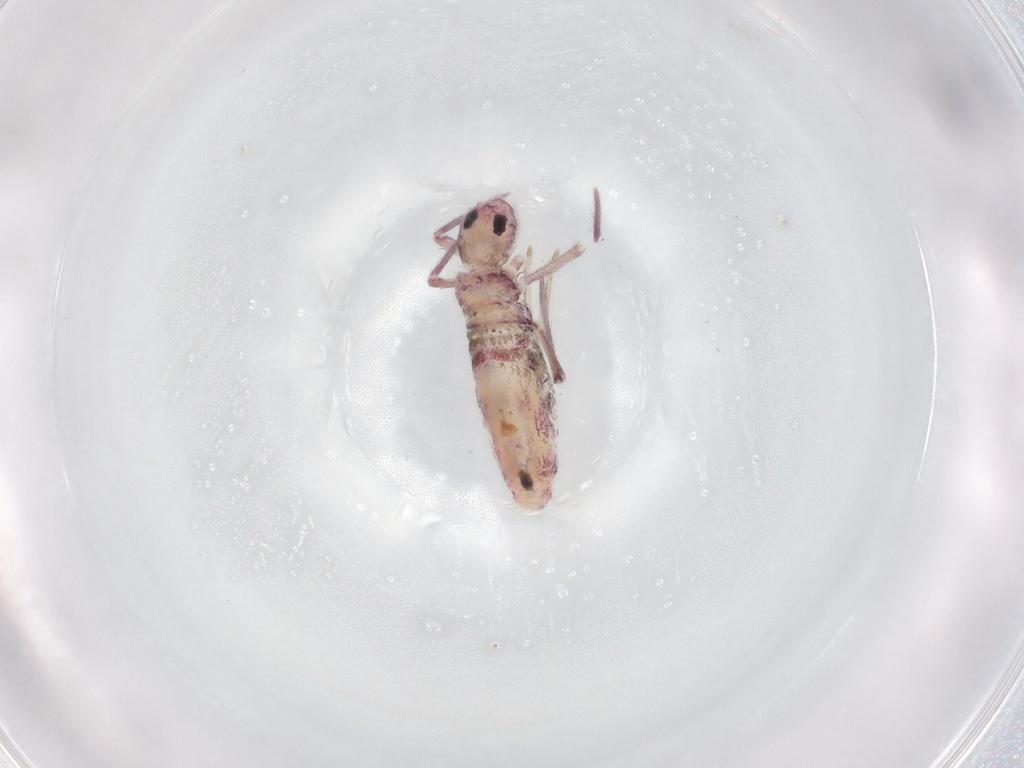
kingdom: Animalia
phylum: Arthropoda
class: Collembola
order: Entomobryomorpha
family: Entomobryidae
